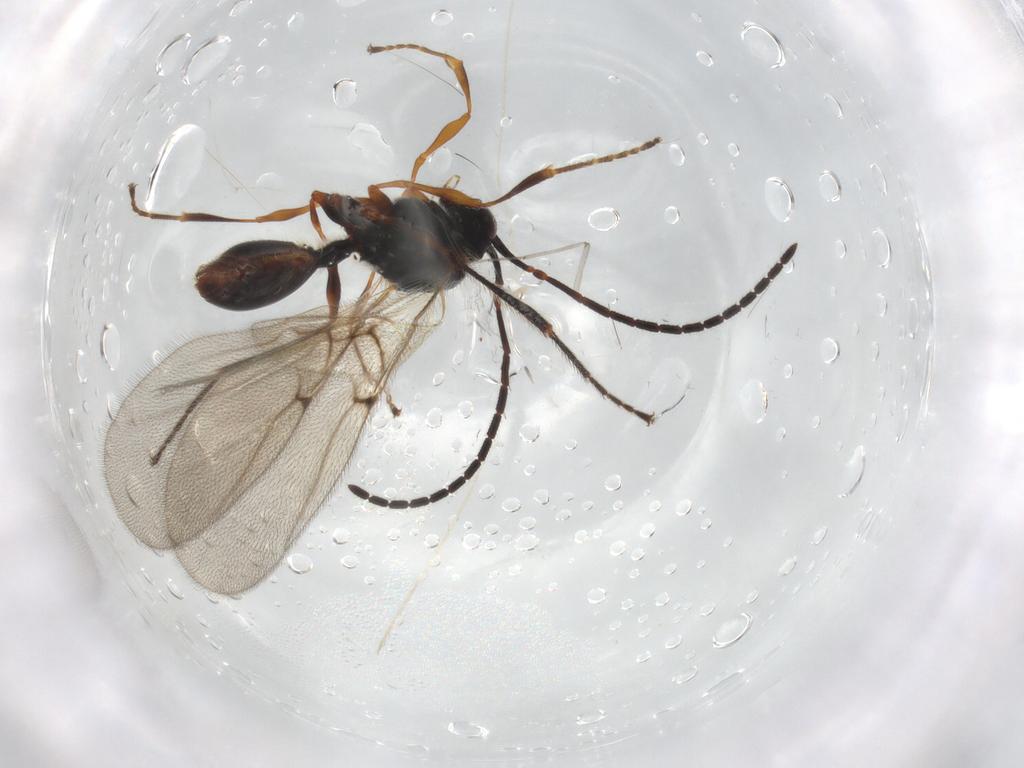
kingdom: Animalia
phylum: Arthropoda
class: Insecta
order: Hymenoptera
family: Diapriidae
